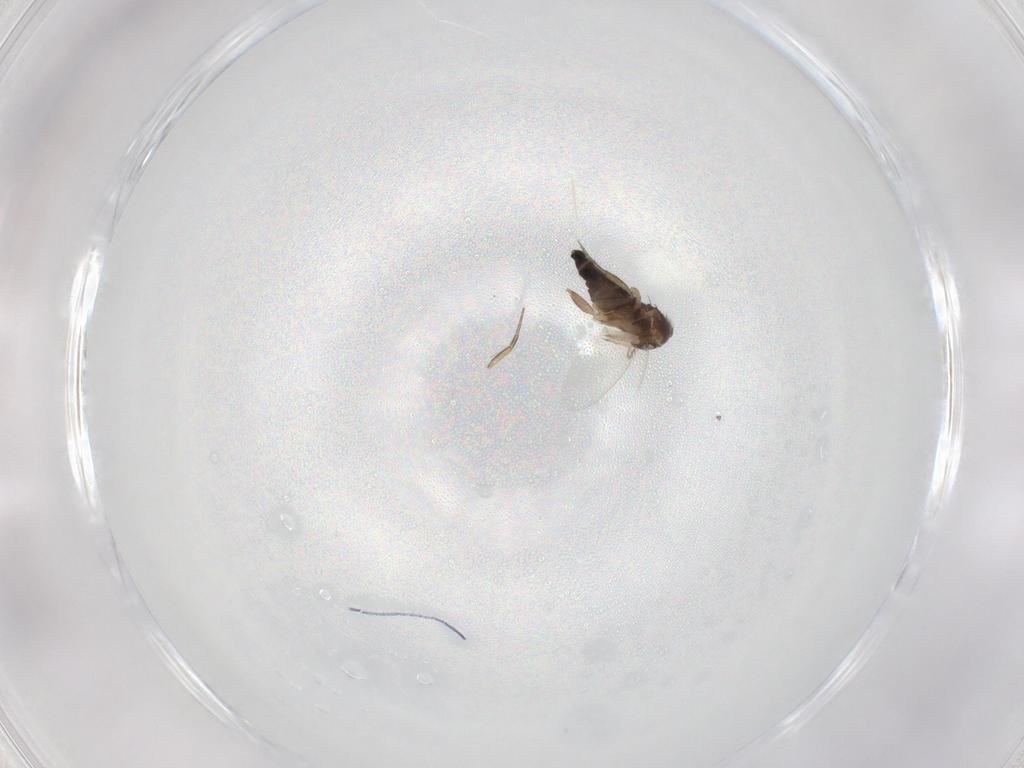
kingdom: Animalia
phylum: Arthropoda
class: Insecta
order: Diptera
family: Phoridae
